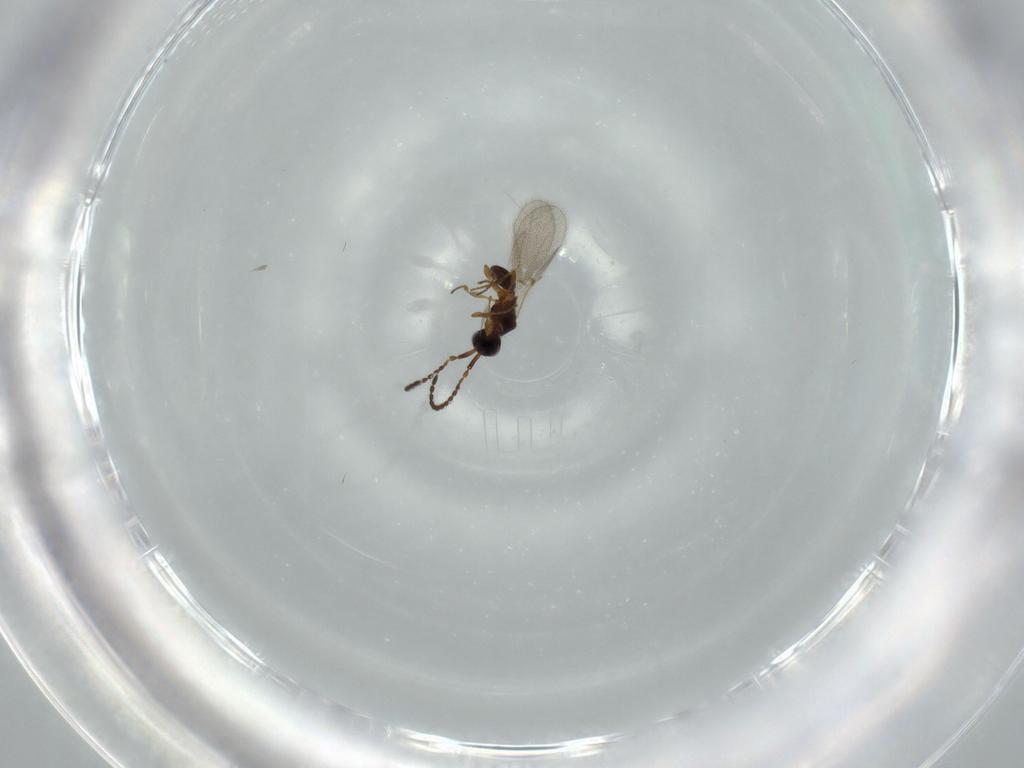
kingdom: Animalia
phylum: Arthropoda
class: Insecta
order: Hymenoptera
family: Diapriidae
